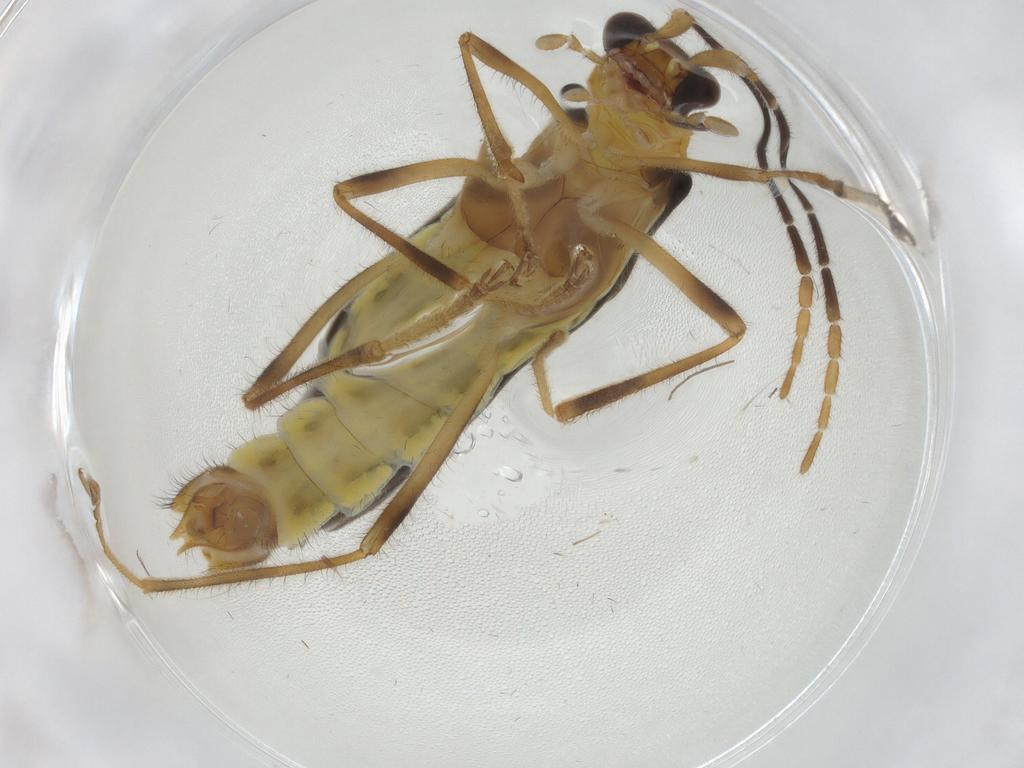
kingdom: Animalia
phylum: Arthropoda
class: Insecta
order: Coleoptera
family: Cantharidae
